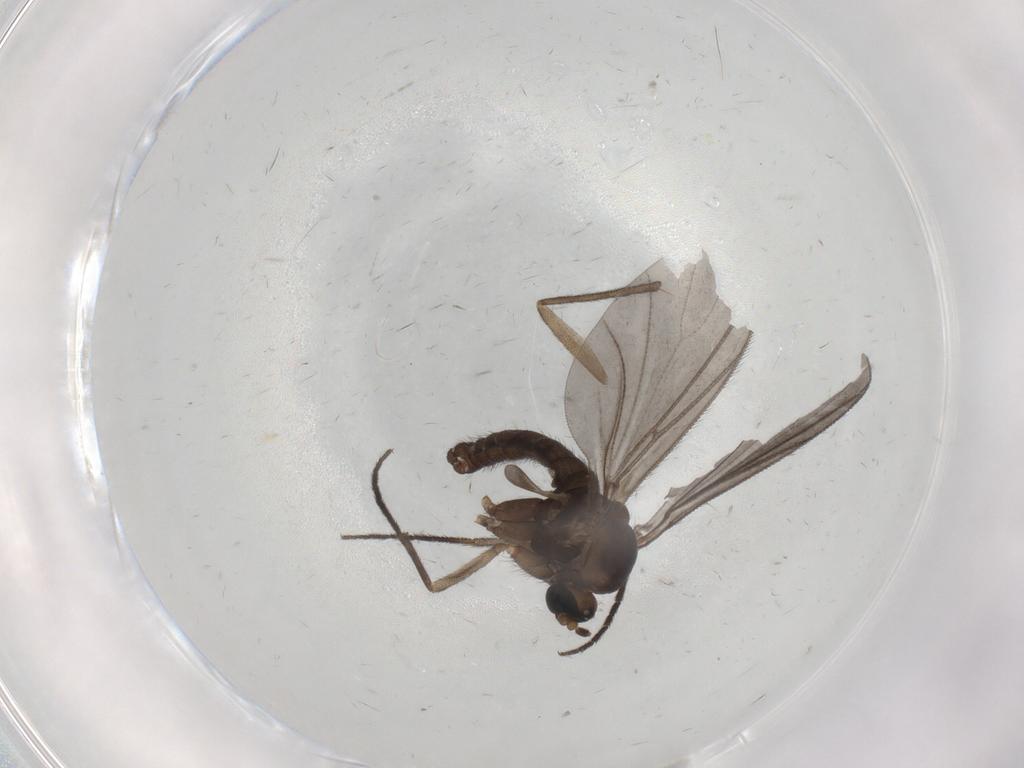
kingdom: Animalia
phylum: Arthropoda
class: Insecta
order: Diptera
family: Sciaridae
